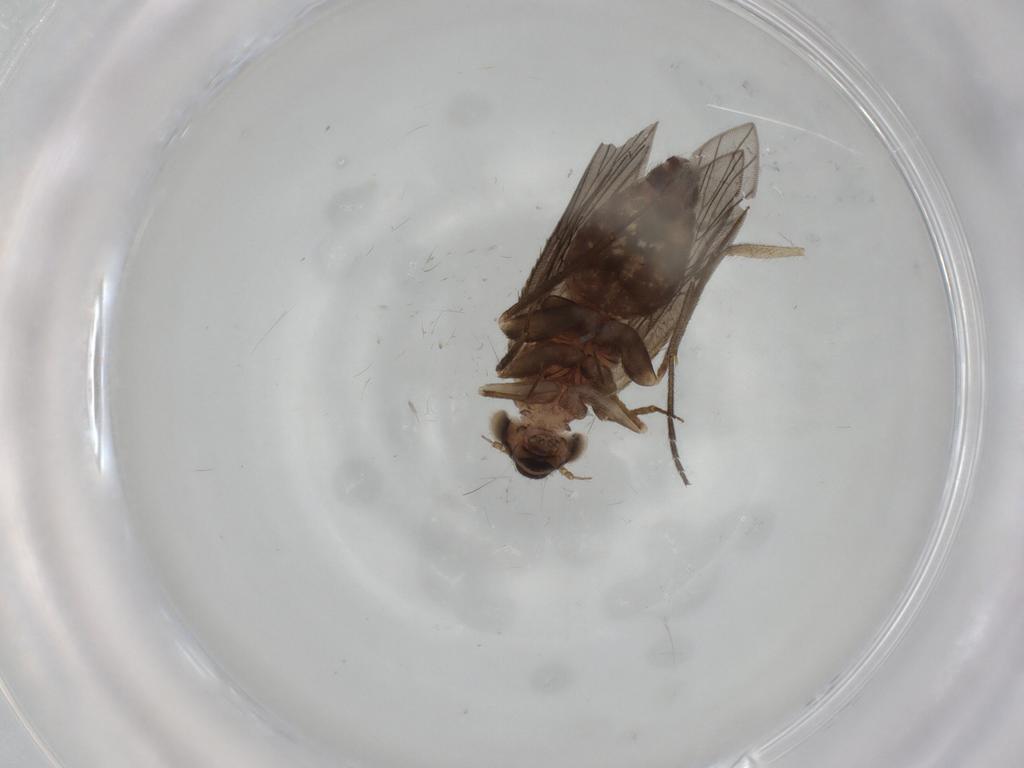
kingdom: Animalia
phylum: Arthropoda
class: Insecta
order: Psocodea
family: Lepidopsocidae
